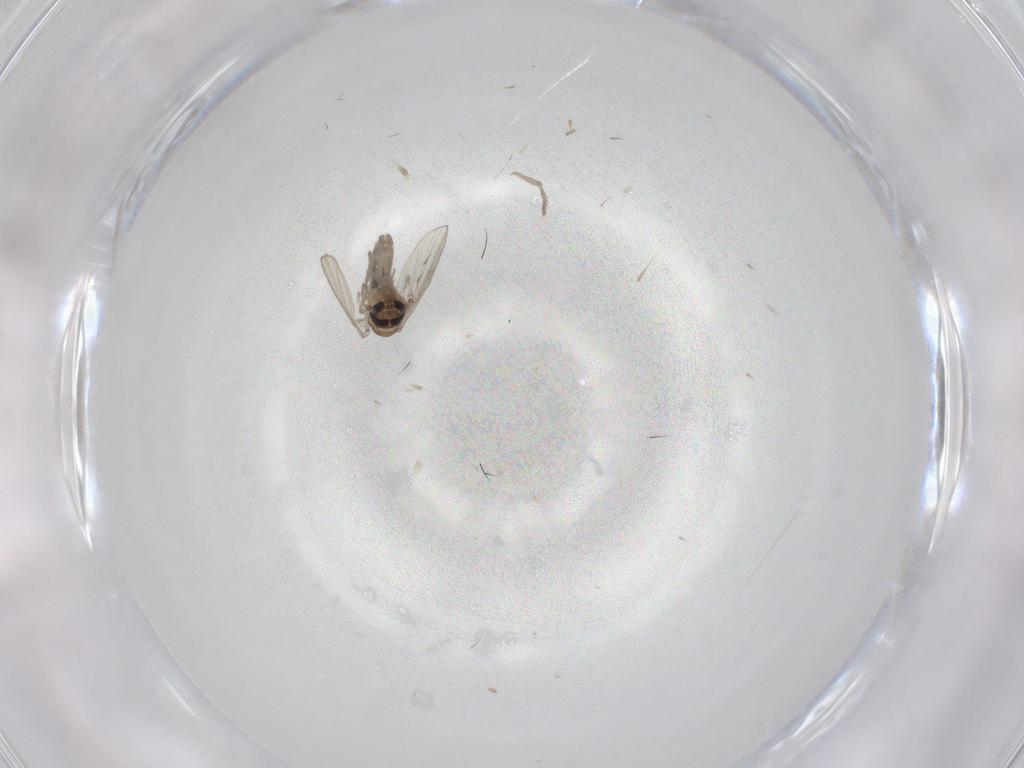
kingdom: Animalia
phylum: Arthropoda
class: Insecta
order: Diptera
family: Psychodidae
